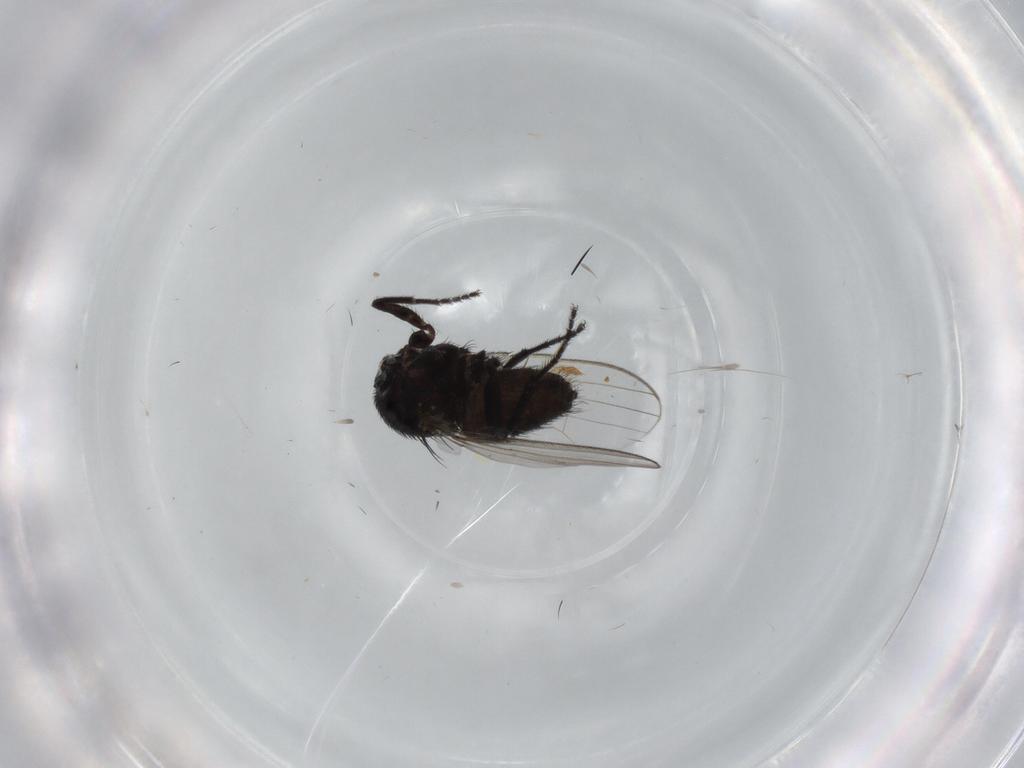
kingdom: Animalia
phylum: Arthropoda
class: Insecta
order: Diptera
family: Milichiidae
